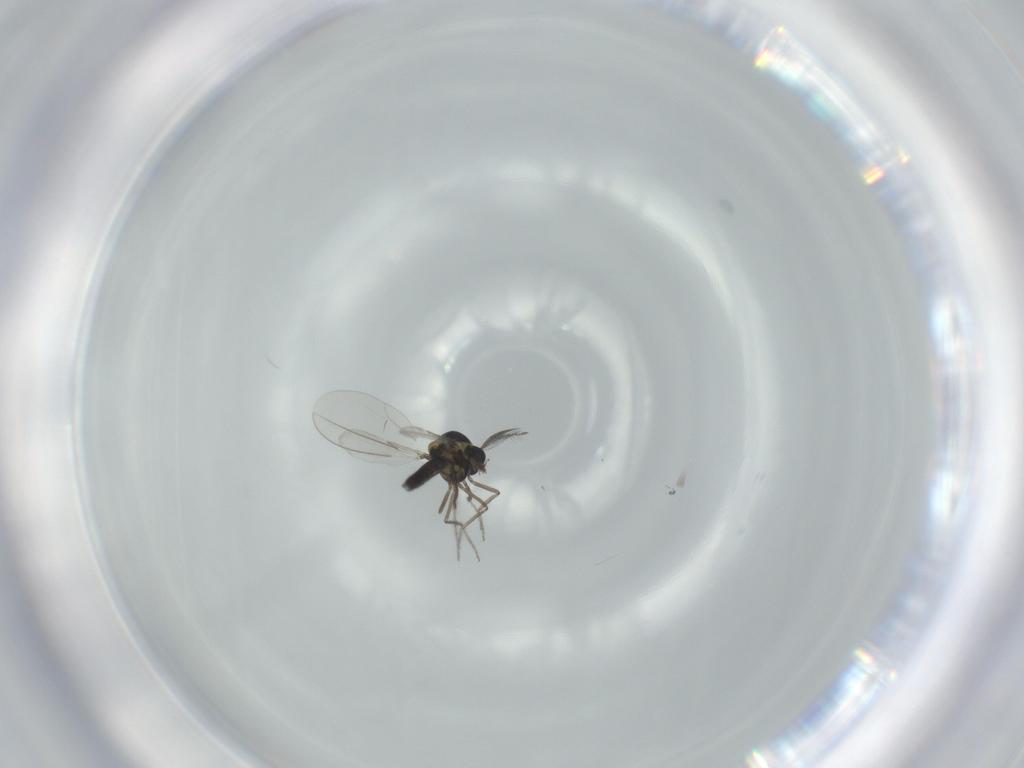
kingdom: Animalia
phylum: Arthropoda
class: Insecta
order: Diptera
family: Ceratopogonidae
